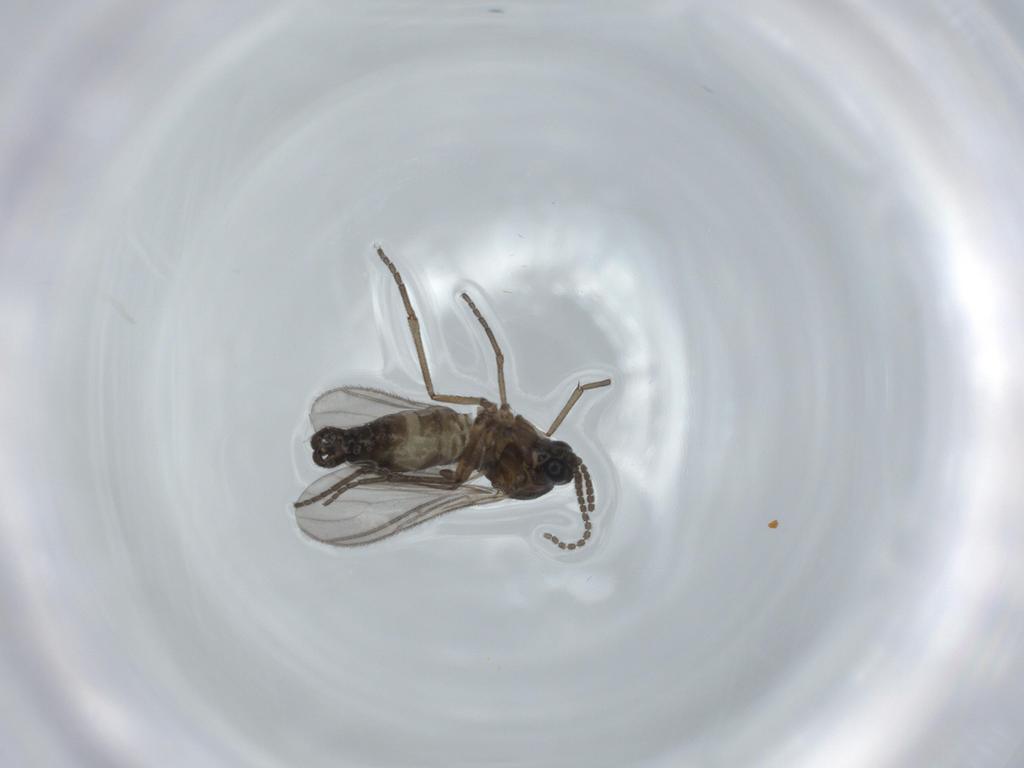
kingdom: Animalia
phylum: Arthropoda
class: Insecta
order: Diptera
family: Sciaridae
